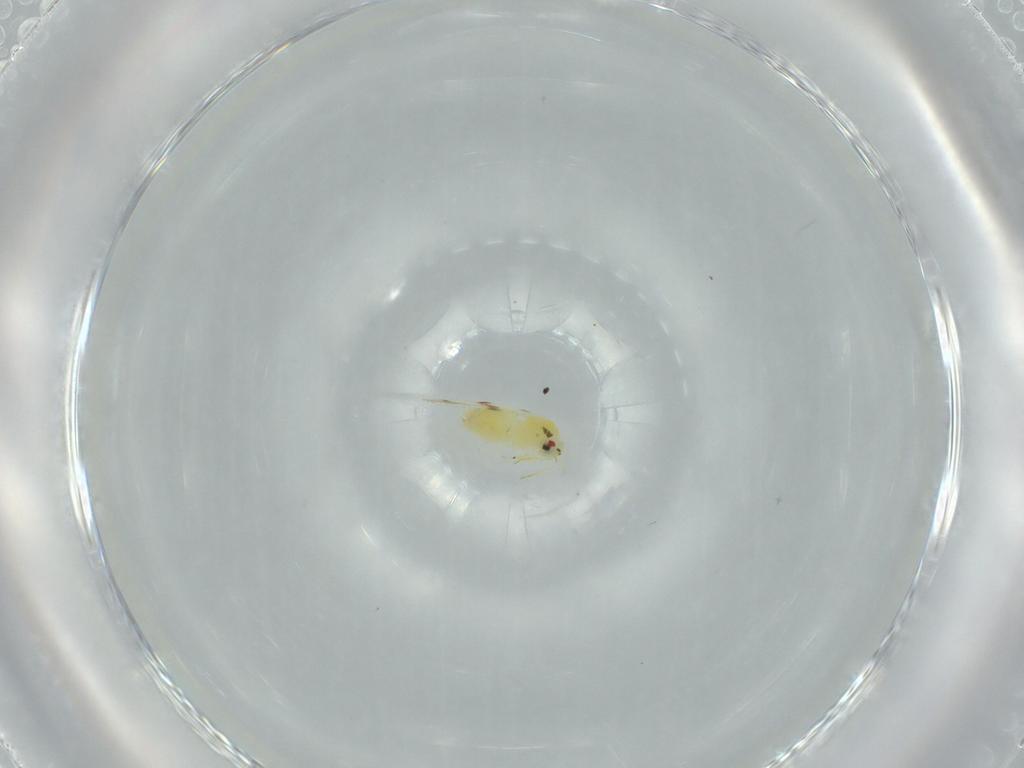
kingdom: Animalia
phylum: Arthropoda
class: Insecta
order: Hemiptera
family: Aleyrodidae
